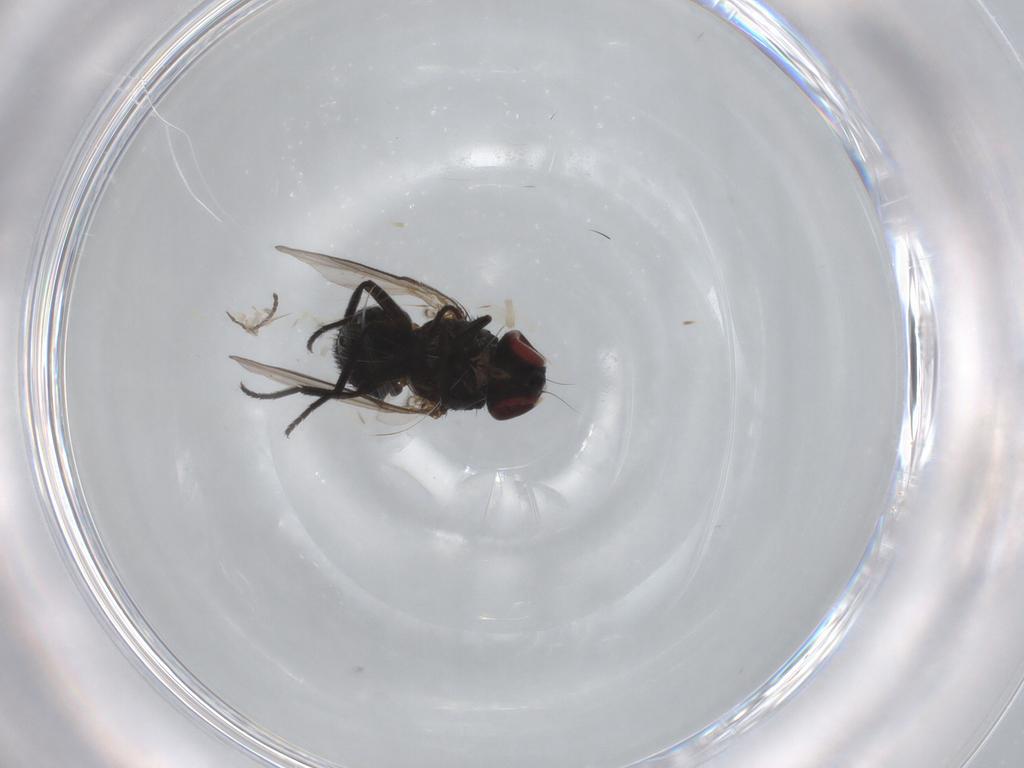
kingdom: Animalia
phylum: Arthropoda
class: Insecta
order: Diptera
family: Agromyzidae
